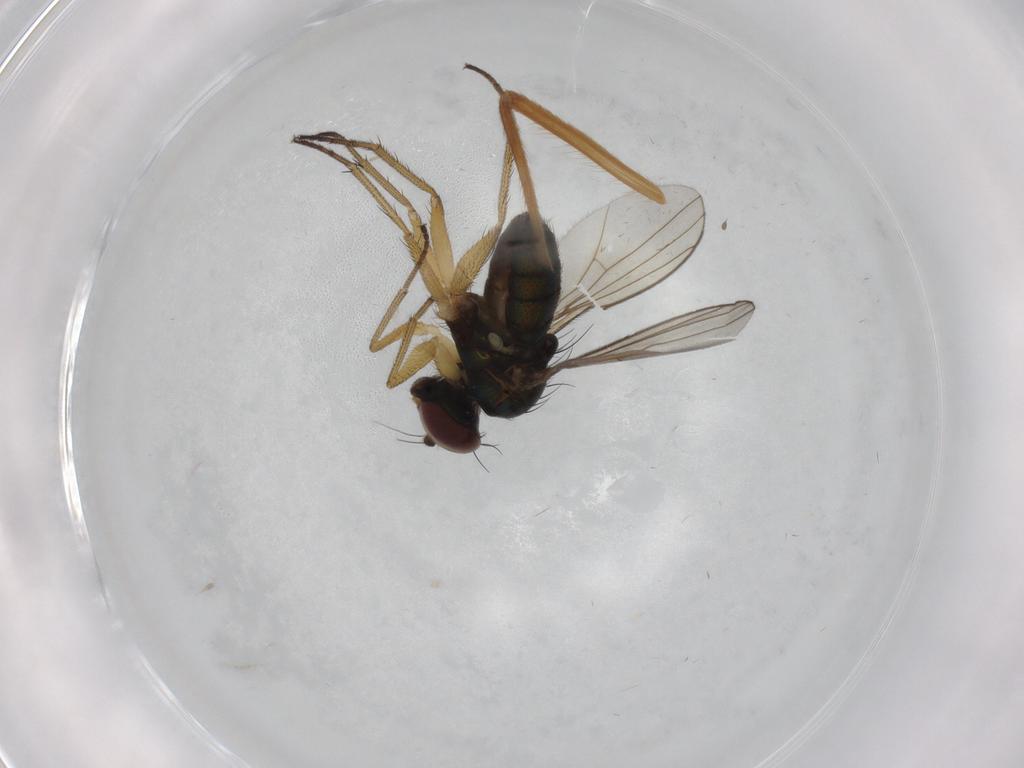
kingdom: Animalia
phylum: Arthropoda
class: Insecta
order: Diptera
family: Dolichopodidae
